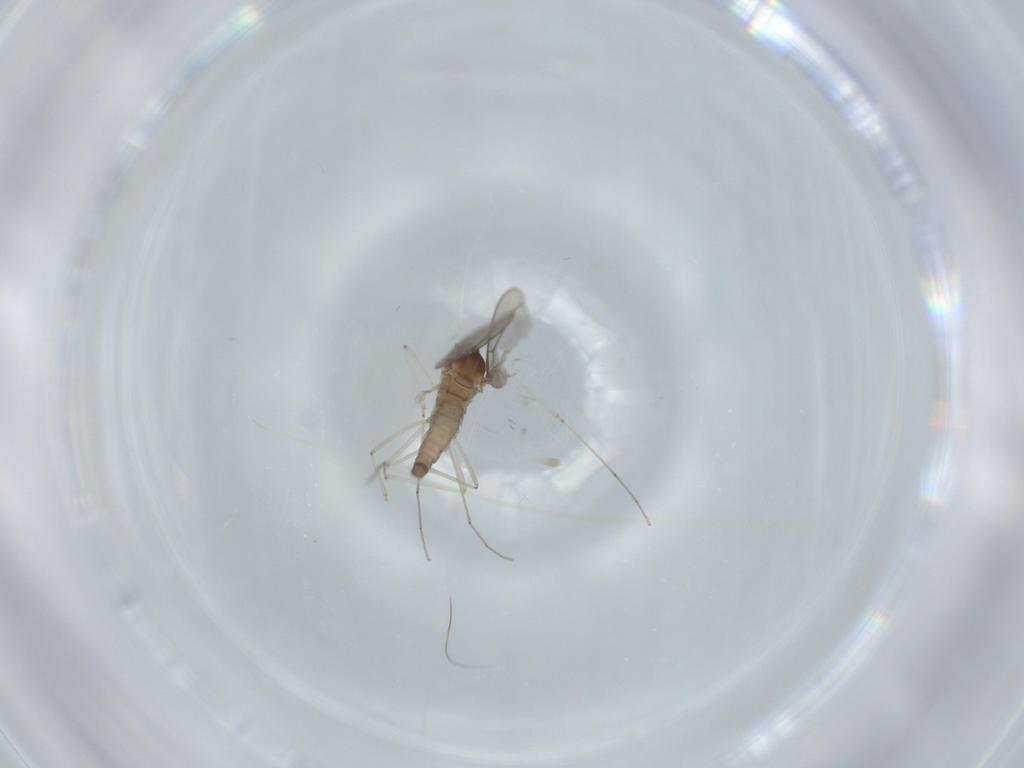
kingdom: Animalia
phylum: Arthropoda
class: Insecta
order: Diptera
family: Cecidomyiidae
